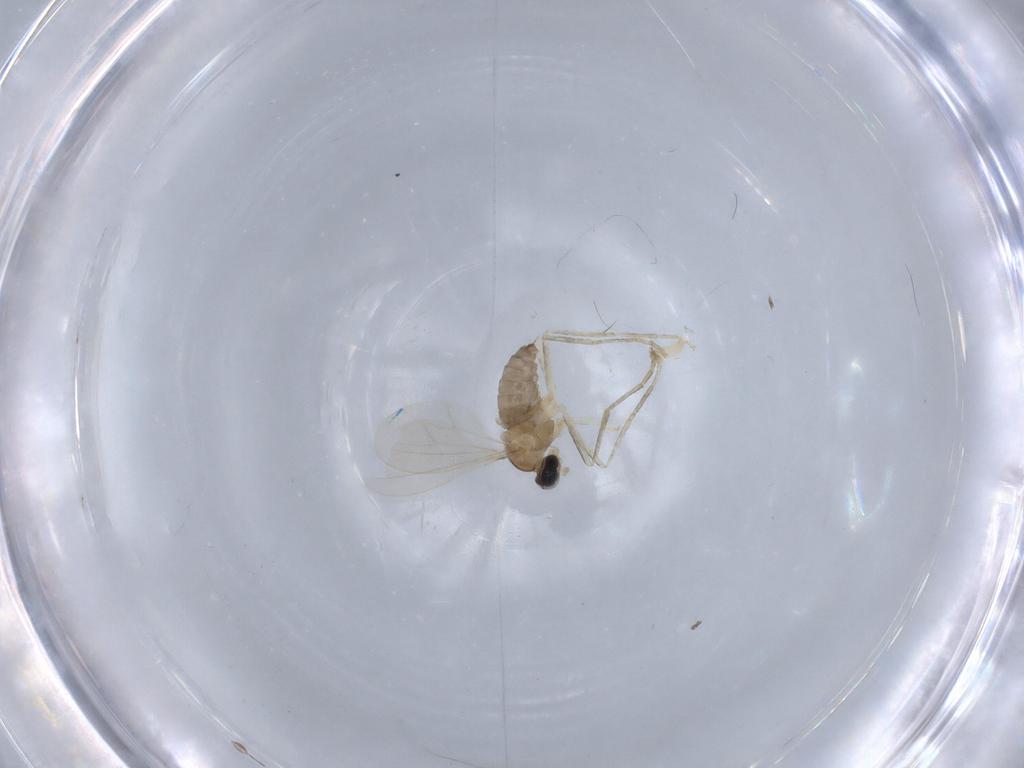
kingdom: Animalia
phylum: Arthropoda
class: Insecta
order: Diptera
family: Cecidomyiidae
